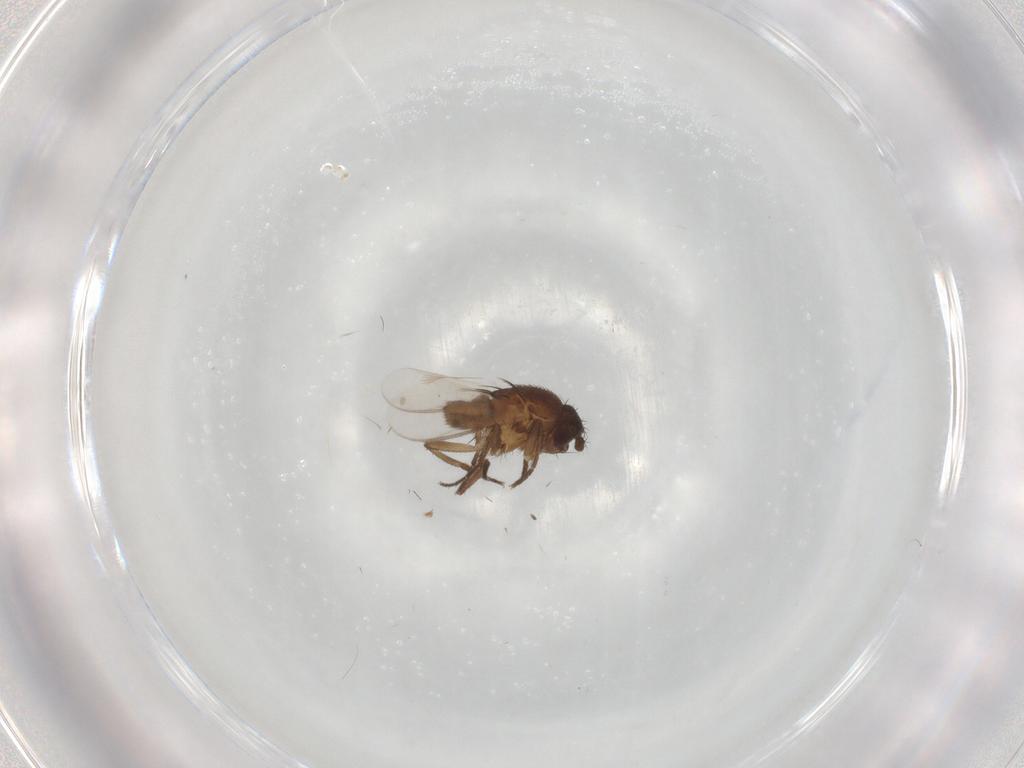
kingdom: Animalia
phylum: Arthropoda
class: Insecta
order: Diptera
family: Sphaeroceridae
